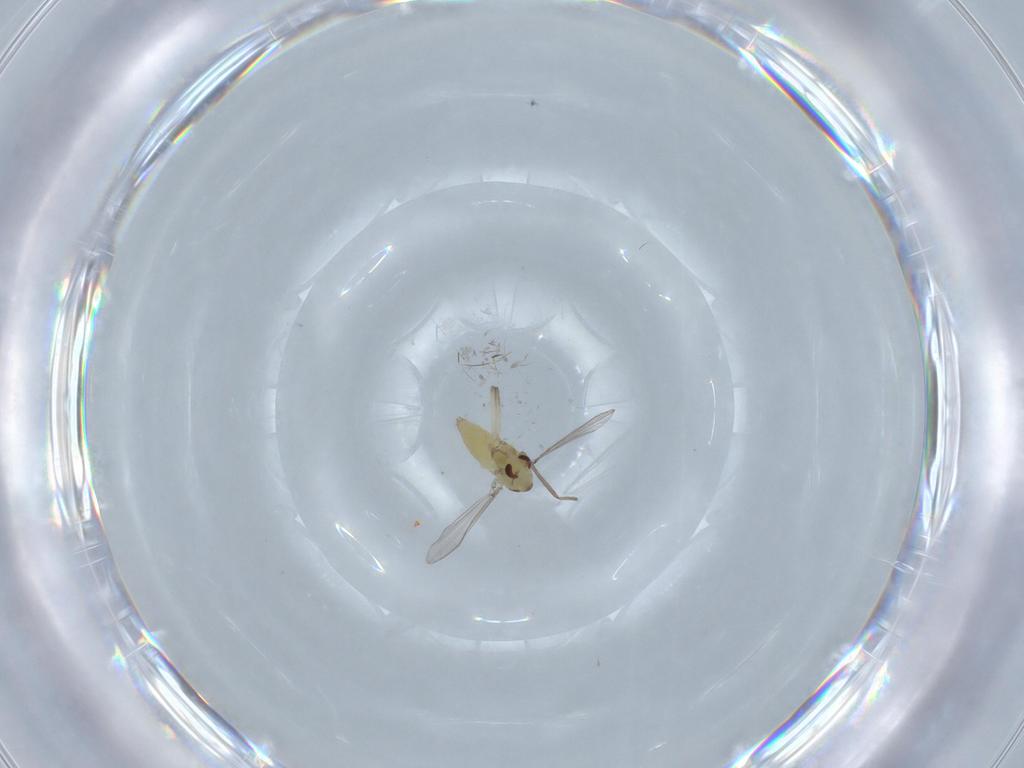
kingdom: Animalia
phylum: Arthropoda
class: Insecta
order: Diptera
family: Chironomidae
